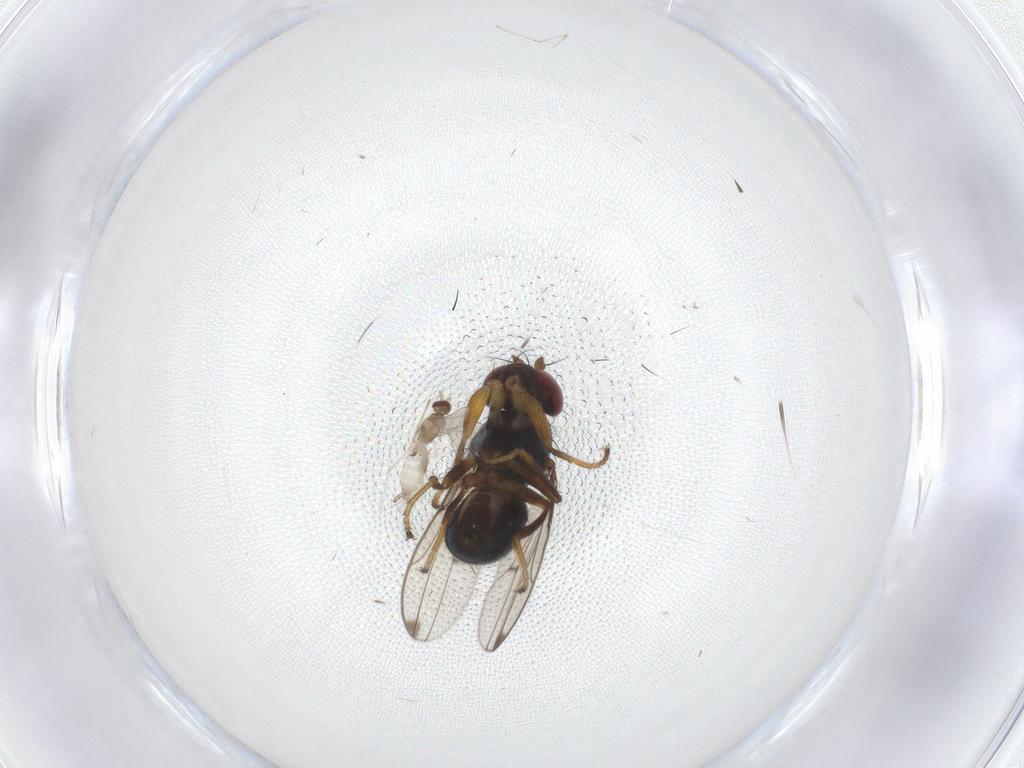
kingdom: Animalia
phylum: Arthropoda
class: Insecta
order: Diptera
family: Cecidomyiidae
